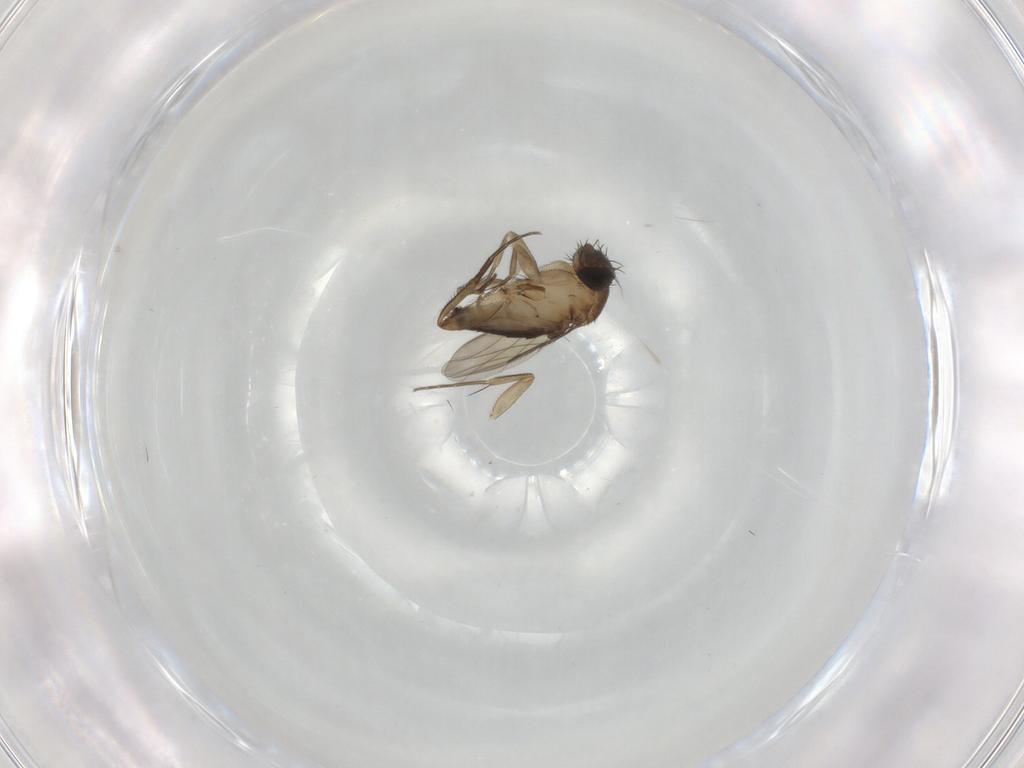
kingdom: Animalia
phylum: Arthropoda
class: Insecta
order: Diptera
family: Phoridae
